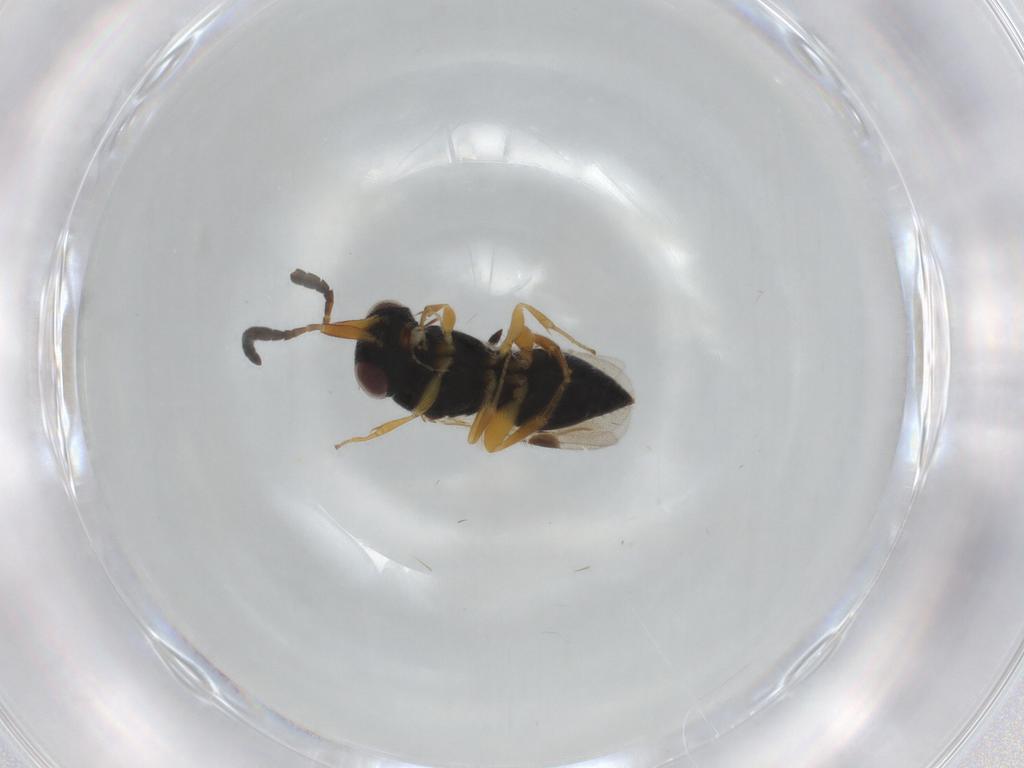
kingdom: Animalia
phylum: Arthropoda
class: Insecta
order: Hymenoptera
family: Megaspilidae
